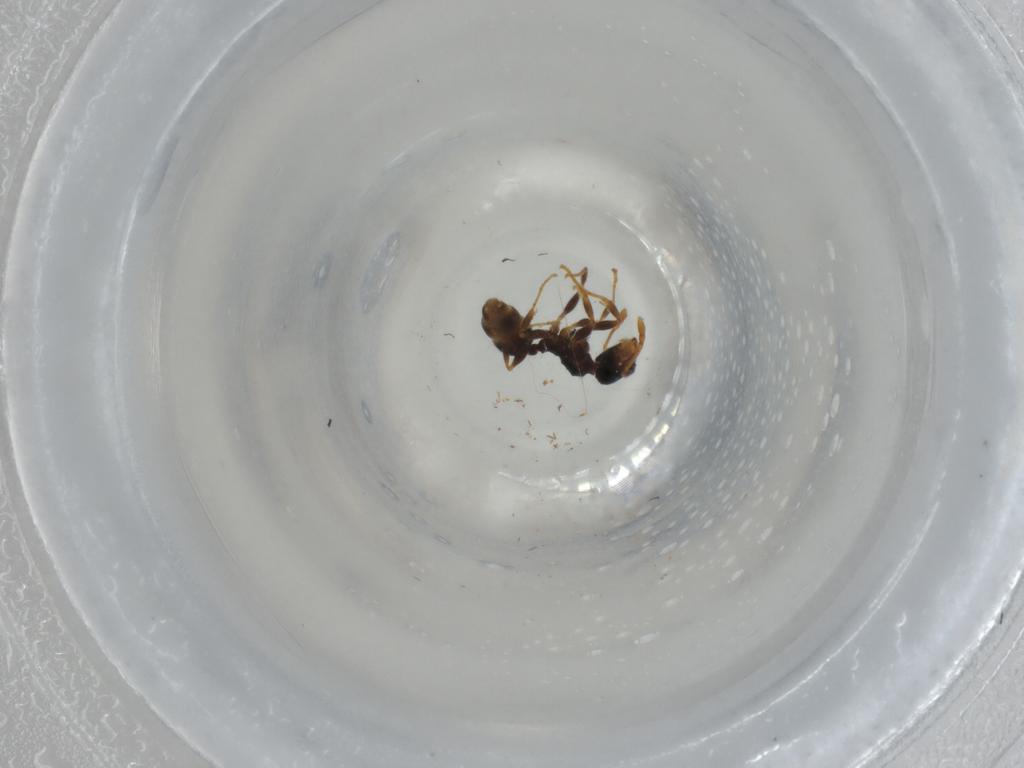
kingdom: Animalia
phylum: Arthropoda
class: Insecta
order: Hymenoptera
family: Formicidae
